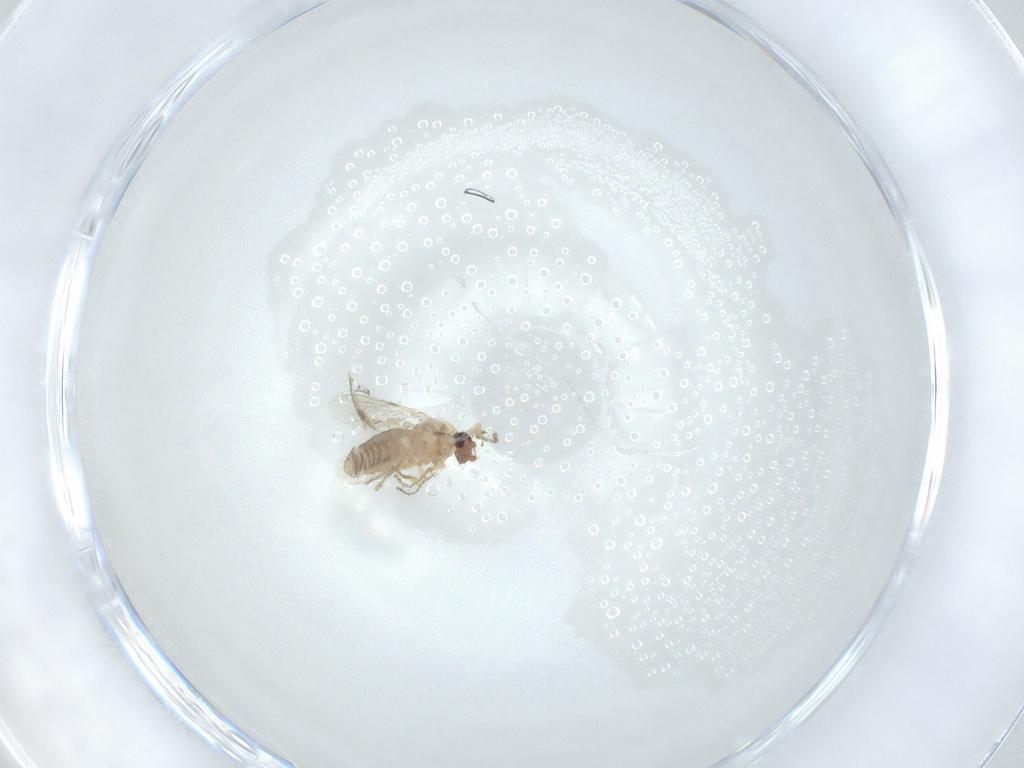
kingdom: Animalia
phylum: Arthropoda
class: Insecta
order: Diptera
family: Ceratopogonidae
